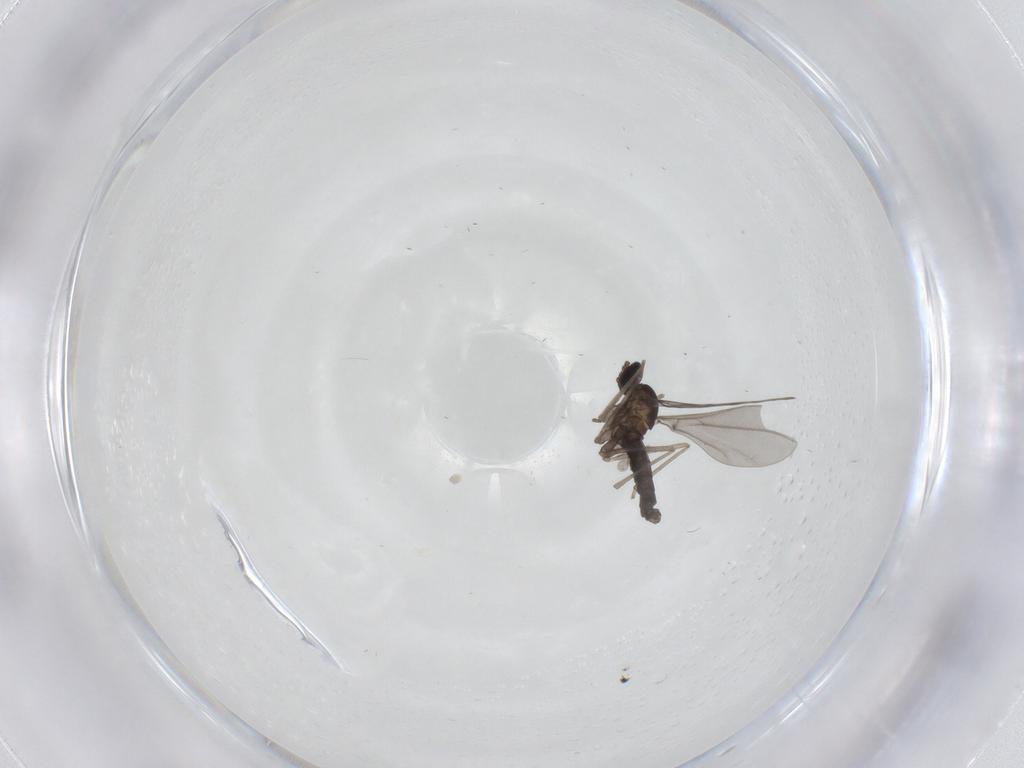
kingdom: Animalia
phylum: Arthropoda
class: Insecta
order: Diptera
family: Cecidomyiidae
